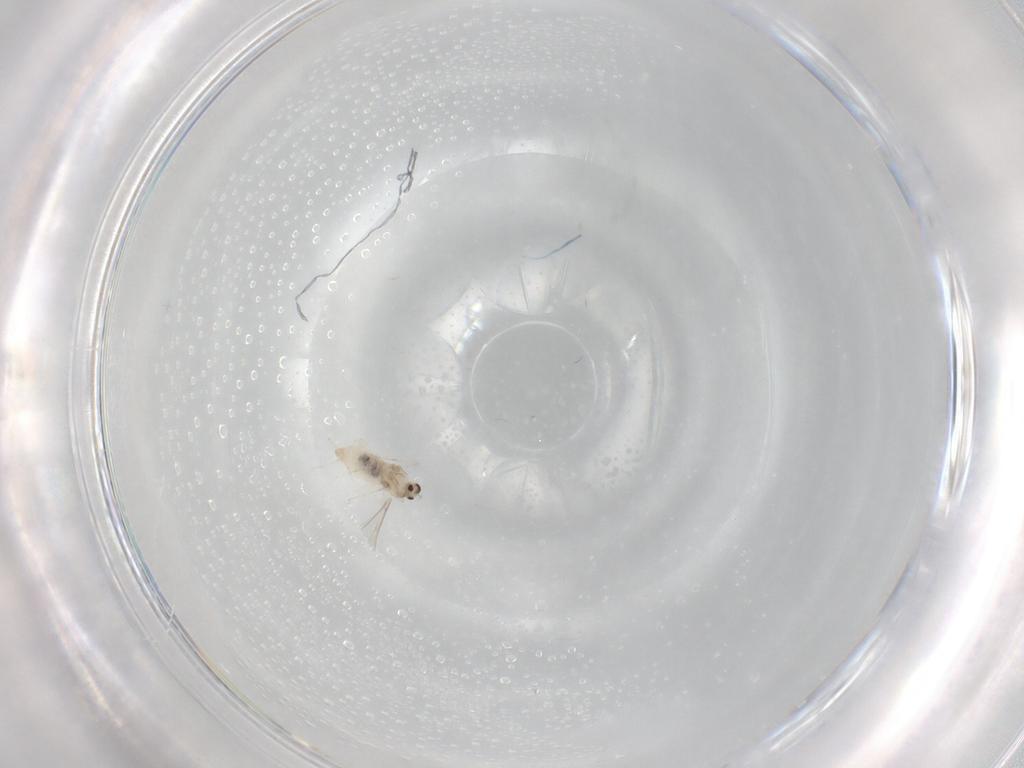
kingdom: Animalia
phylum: Arthropoda
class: Insecta
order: Diptera
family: Cecidomyiidae
